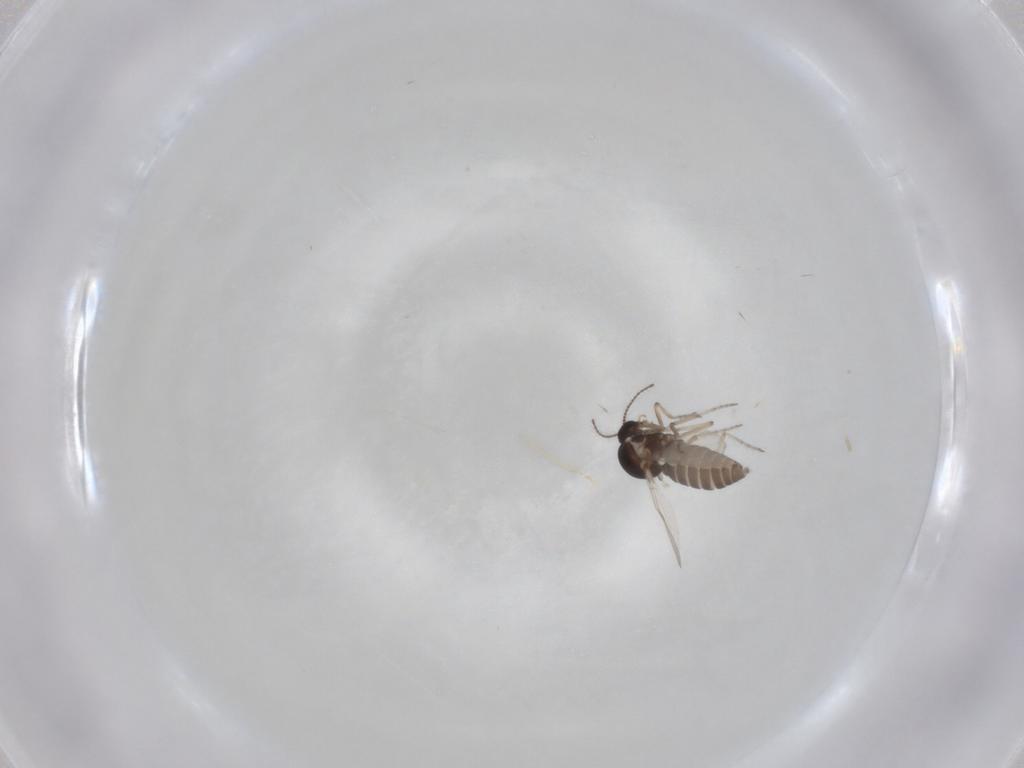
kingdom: Animalia
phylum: Arthropoda
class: Insecta
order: Diptera
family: Ceratopogonidae
